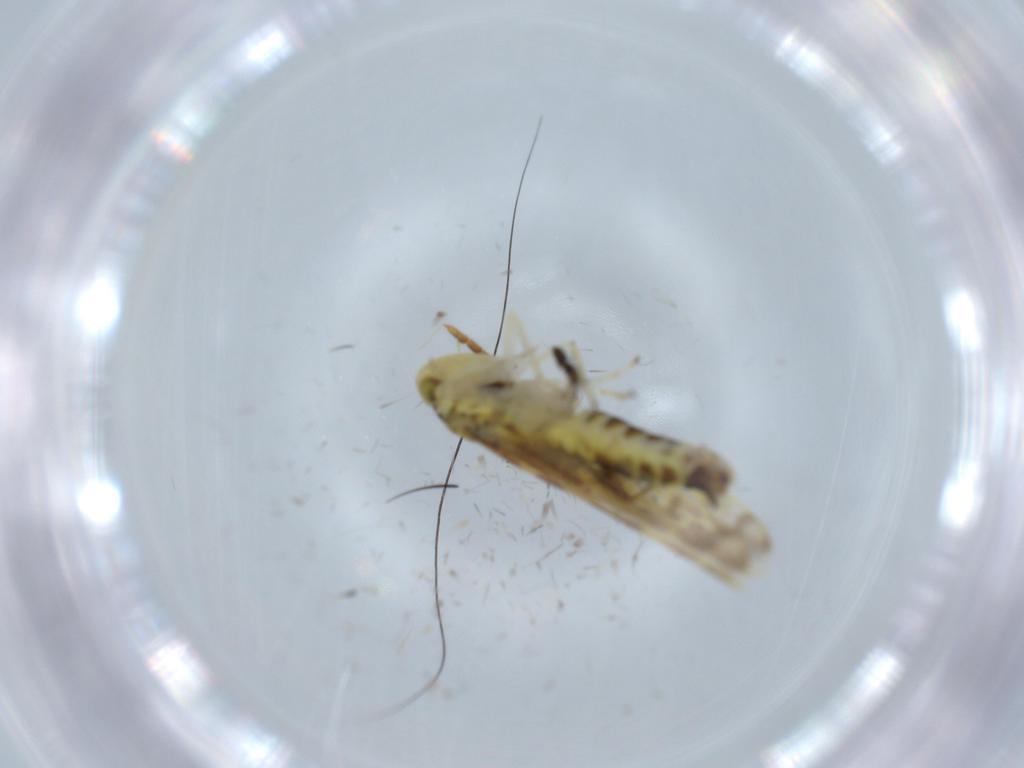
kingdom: Animalia
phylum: Arthropoda
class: Insecta
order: Hemiptera
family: Cicadellidae
